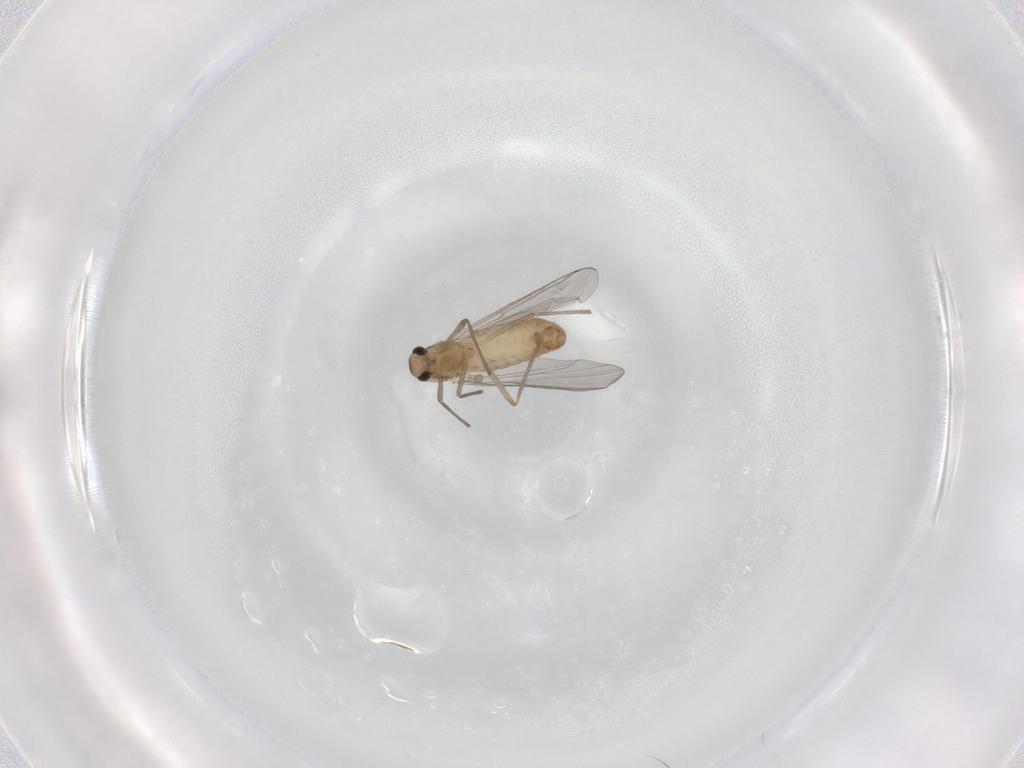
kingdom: Animalia
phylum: Arthropoda
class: Insecta
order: Diptera
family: Chironomidae
